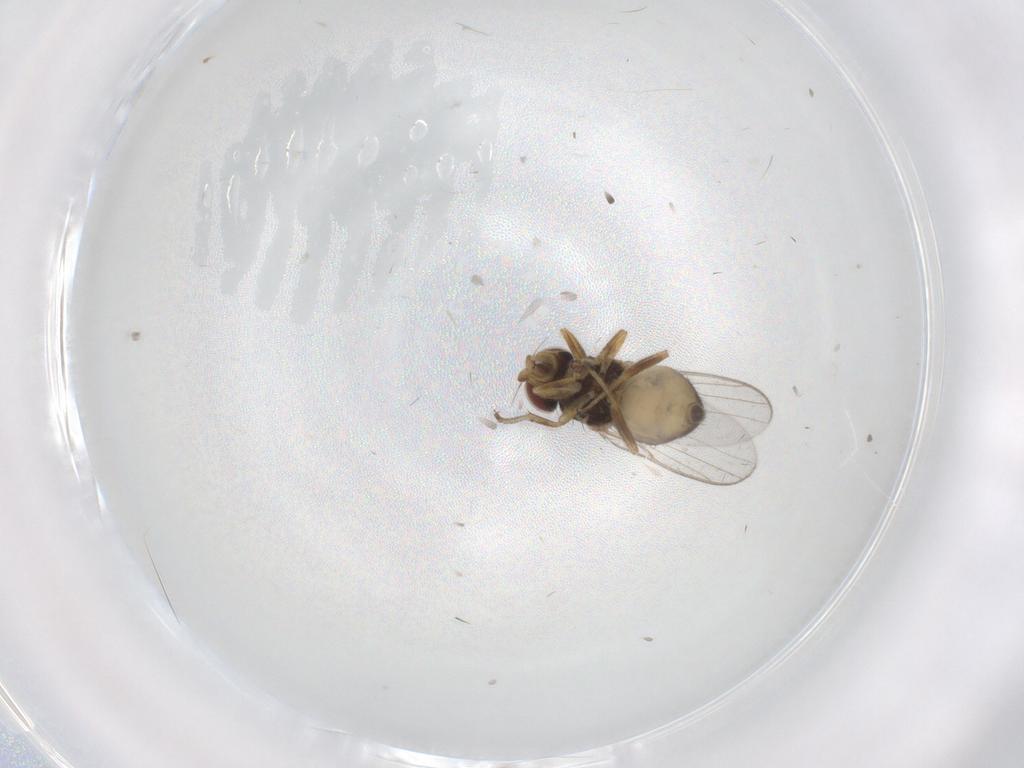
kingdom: Animalia
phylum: Arthropoda
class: Insecta
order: Diptera
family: Chloropidae
